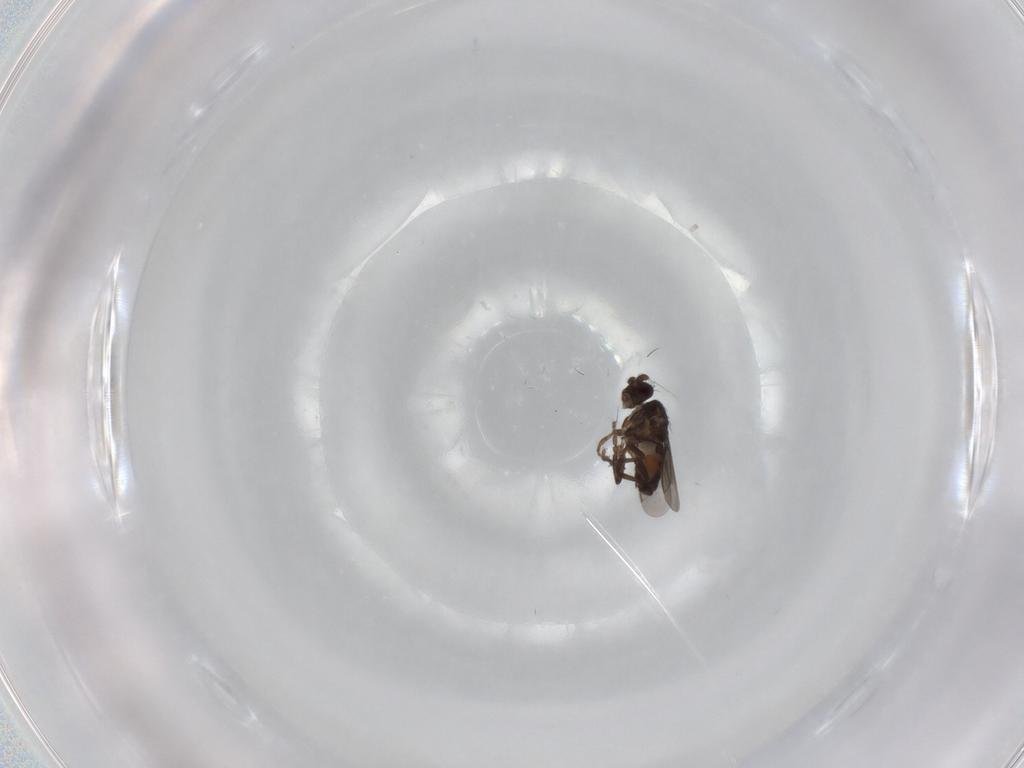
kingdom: Animalia
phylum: Arthropoda
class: Insecta
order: Diptera
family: Sphaeroceridae
